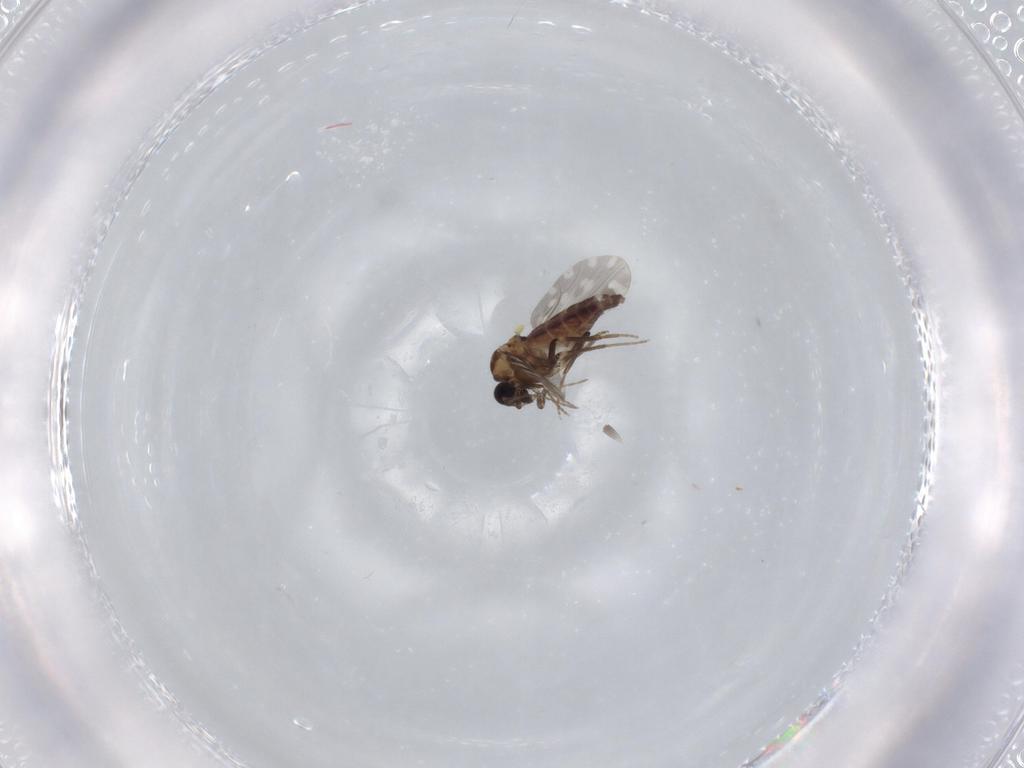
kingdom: Animalia
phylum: Arthropoda
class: Insecta
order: Diptera
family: Ceratopogonidae
